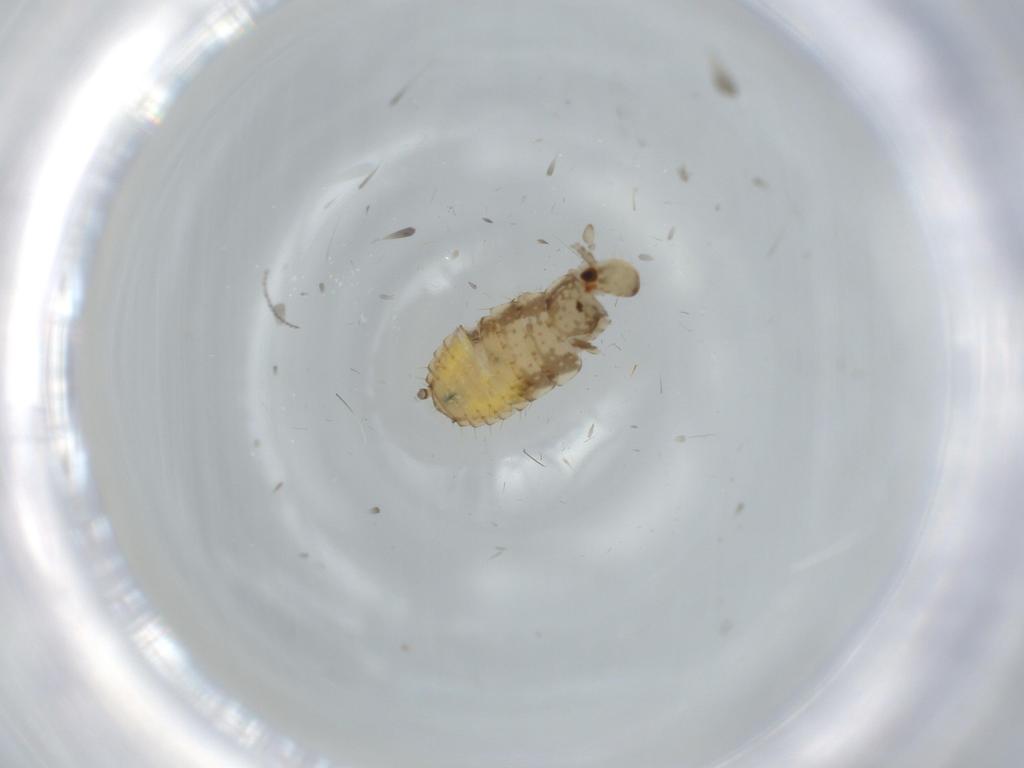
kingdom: Animalia
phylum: Arthropoda
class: Insecta
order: Blattodea
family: Ectobiidae
